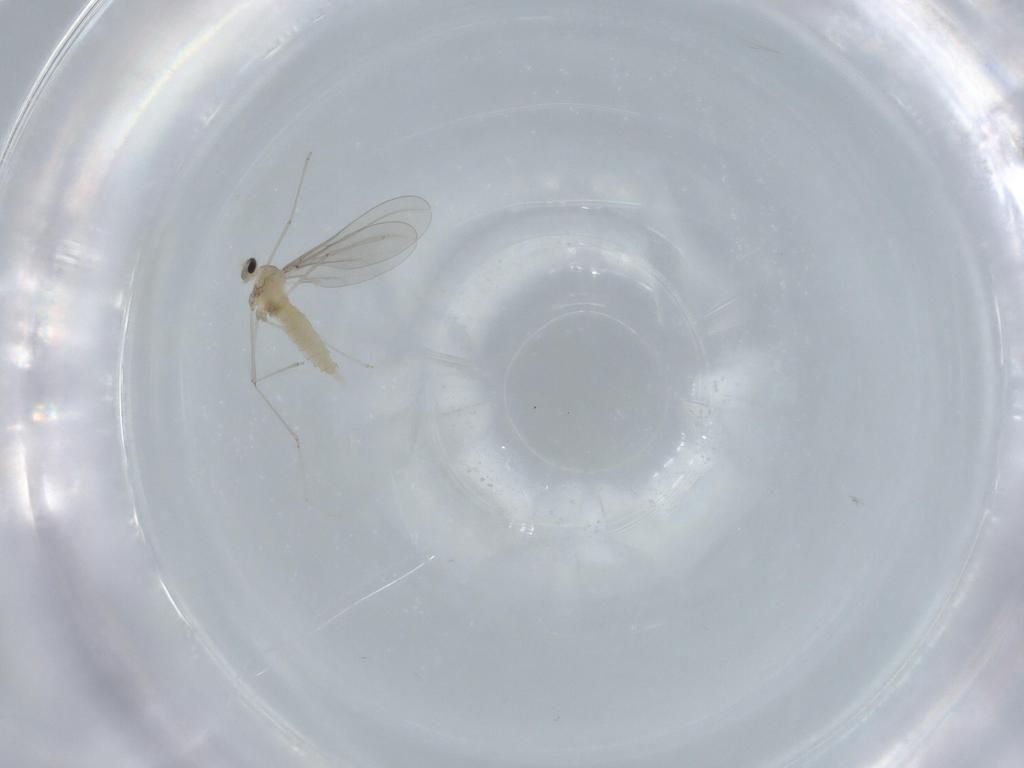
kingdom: Animalia
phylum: Arthropoda
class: Insecta
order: Diptera
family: Cecidomyiidae
